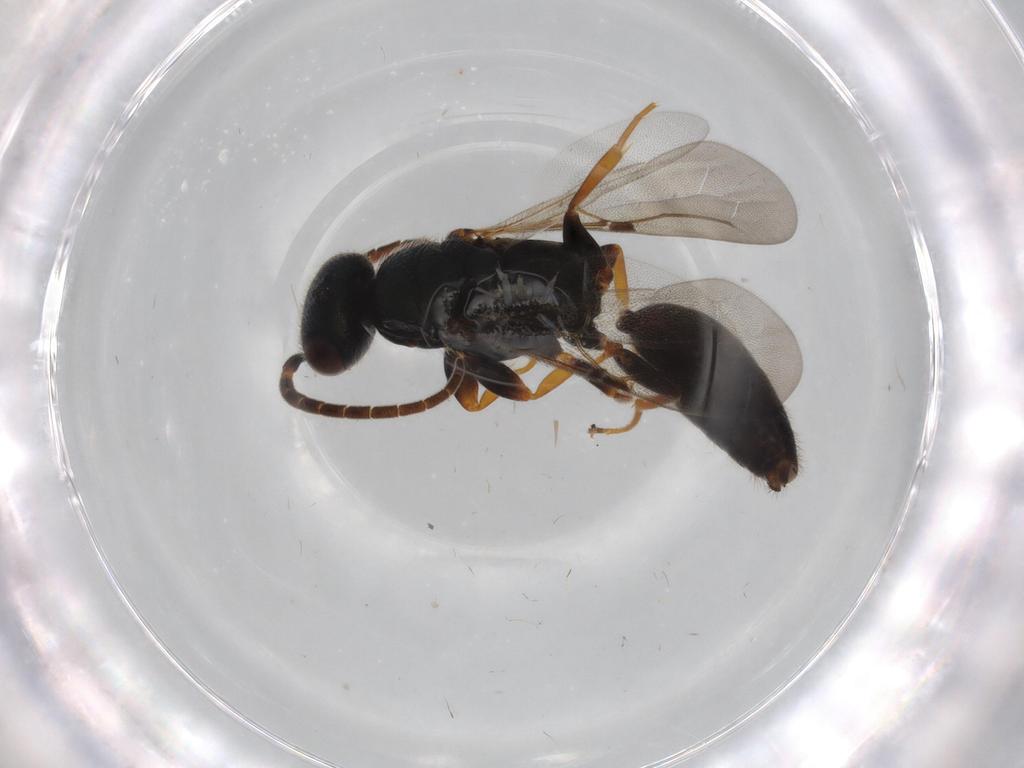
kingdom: Animalia
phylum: Arthropoda
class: Insecta
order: Hymenoptera
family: Bethylidae
